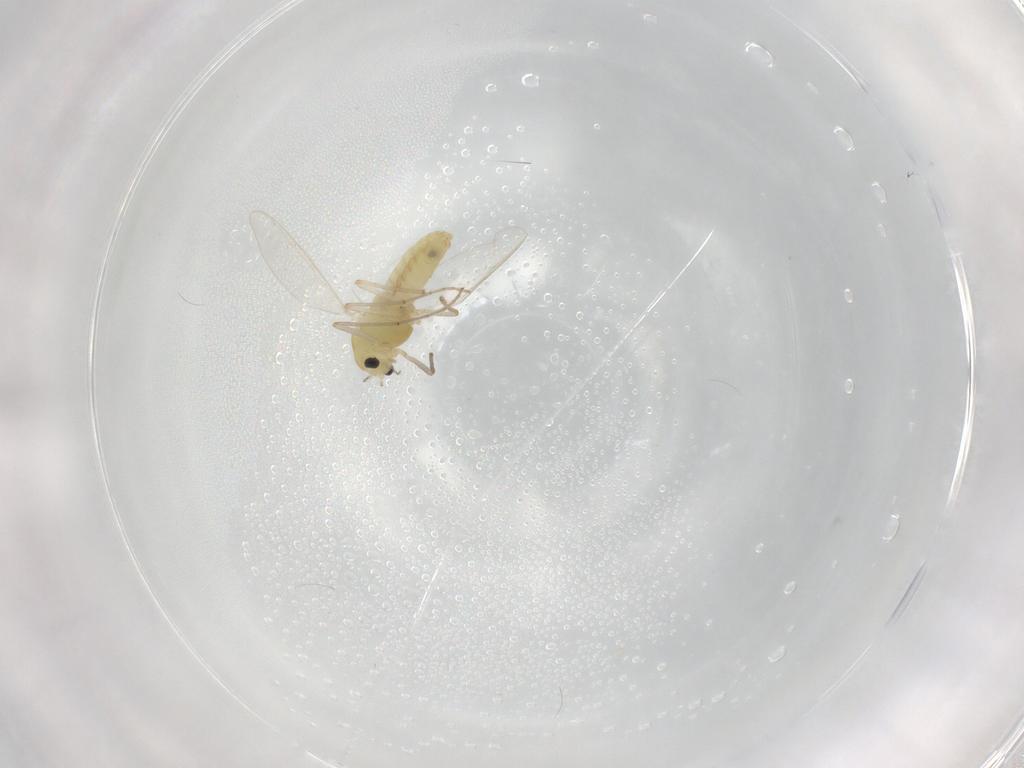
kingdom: Animalia
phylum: Arthropoda
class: Insecta
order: Diptera
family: Chironomidae
